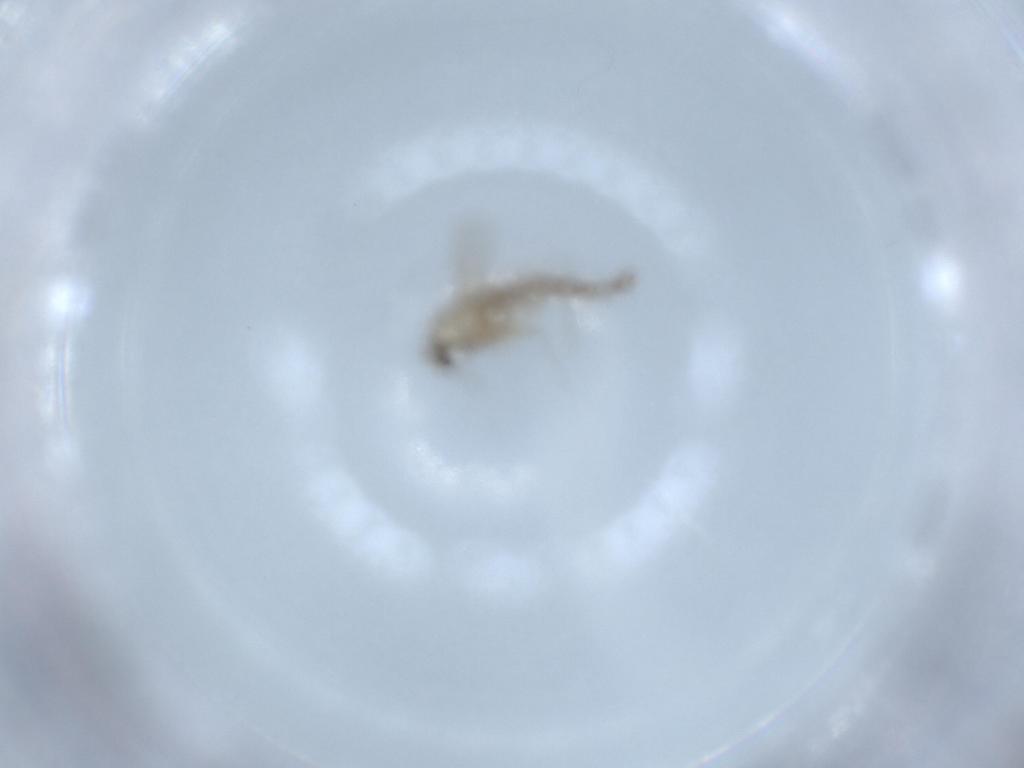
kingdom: Animalia
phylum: Arthropoda
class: Insecta
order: Diptera
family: Chironomidae
